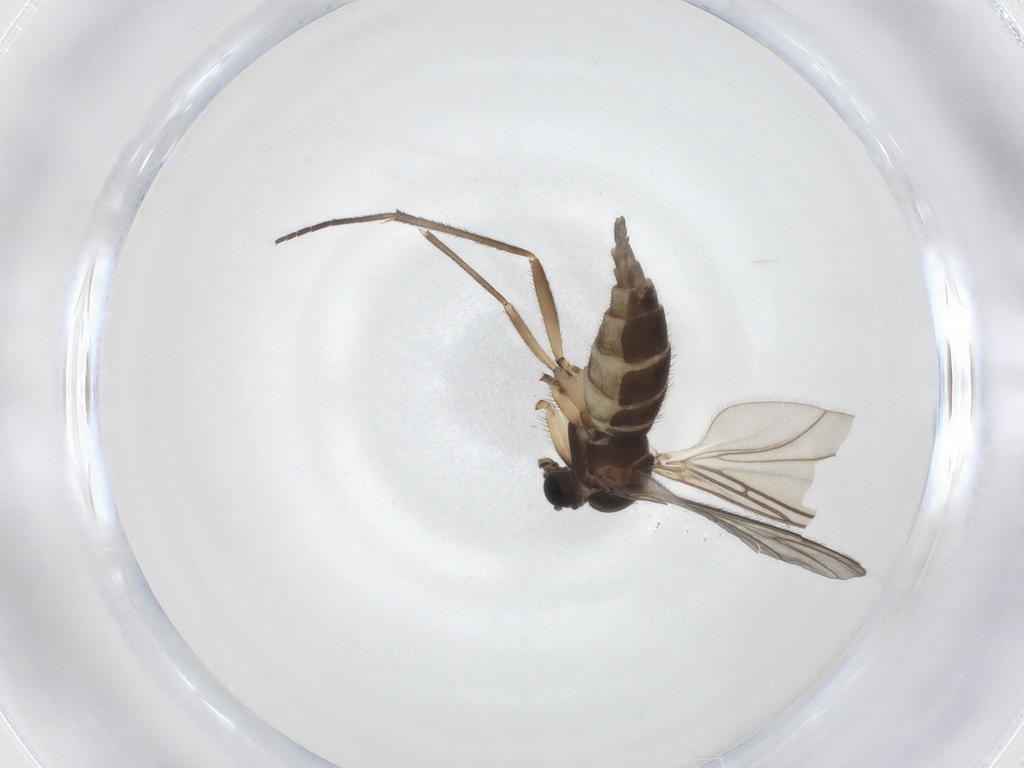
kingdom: Animalia
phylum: Arthropoda
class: Insecta
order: Diptera
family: Sciaridae
